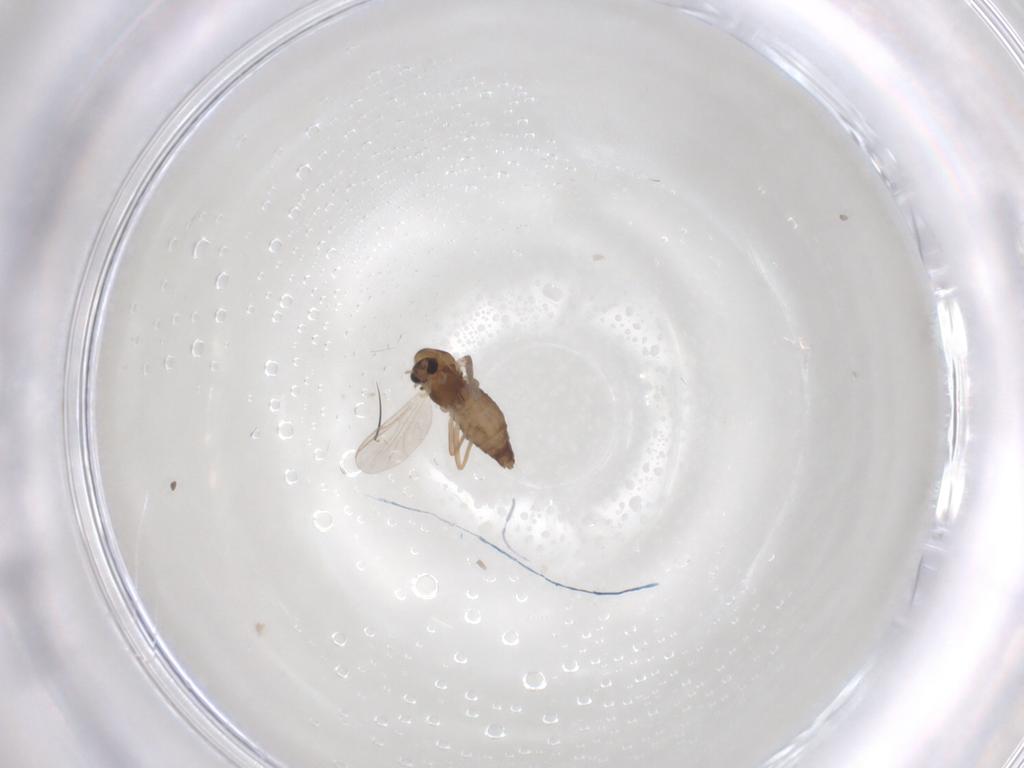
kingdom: Animalia
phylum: Arthropoda
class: Insecta
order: Diptera
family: Chironomidae
